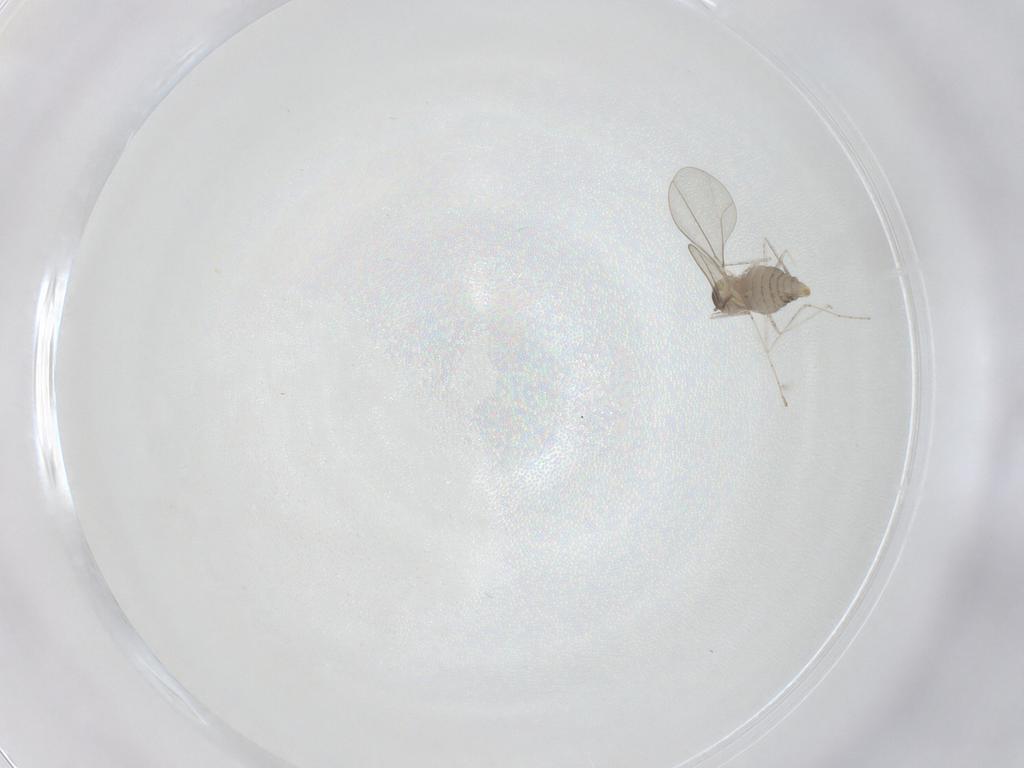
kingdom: Animalia
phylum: Arthropoda
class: Insecta
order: Diptera
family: Cecidomyiidae
